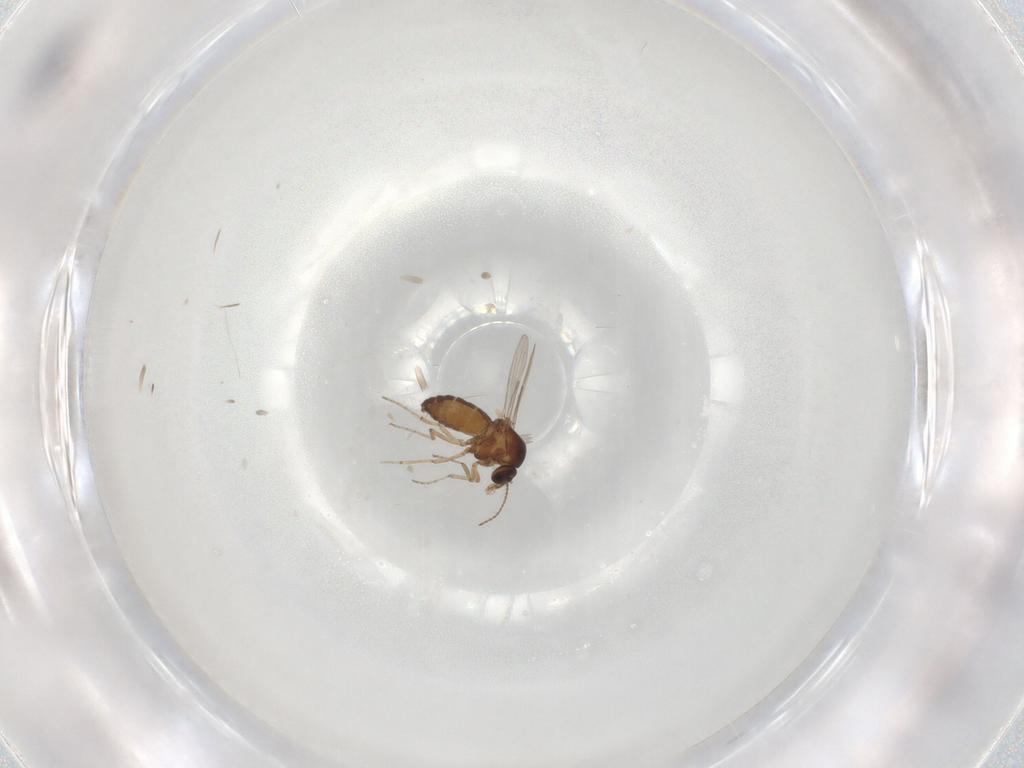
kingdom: Animalia
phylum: Arthropoda
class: Insecta
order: Diptera
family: Ceratopogonidae
